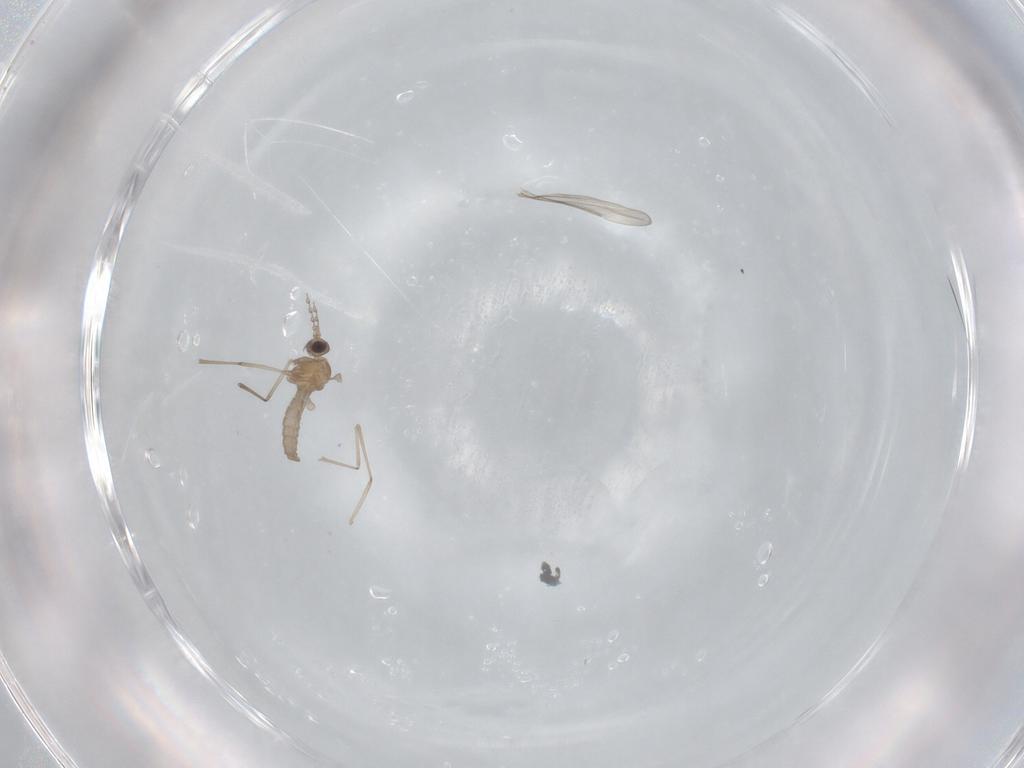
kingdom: Animalia
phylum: Arthropoda
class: Insecta
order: Diptera
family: Cecidomyiidae
